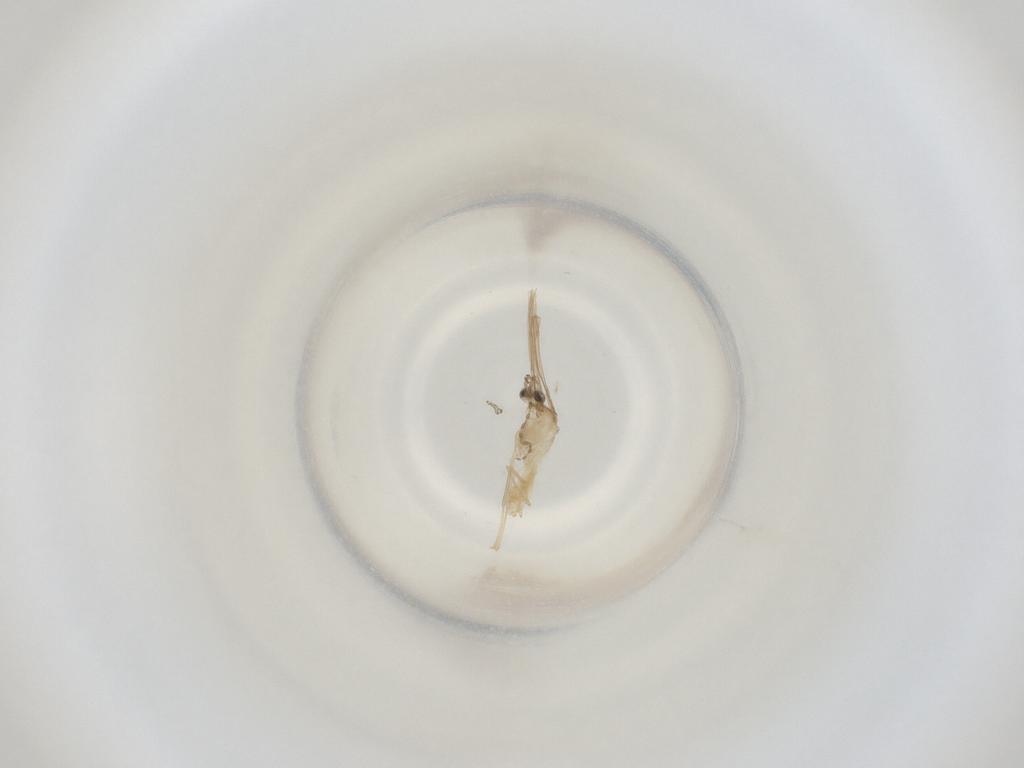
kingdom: Animalia
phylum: Arthropoda
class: Insecta
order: Diptera
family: Cecidomyiidae
